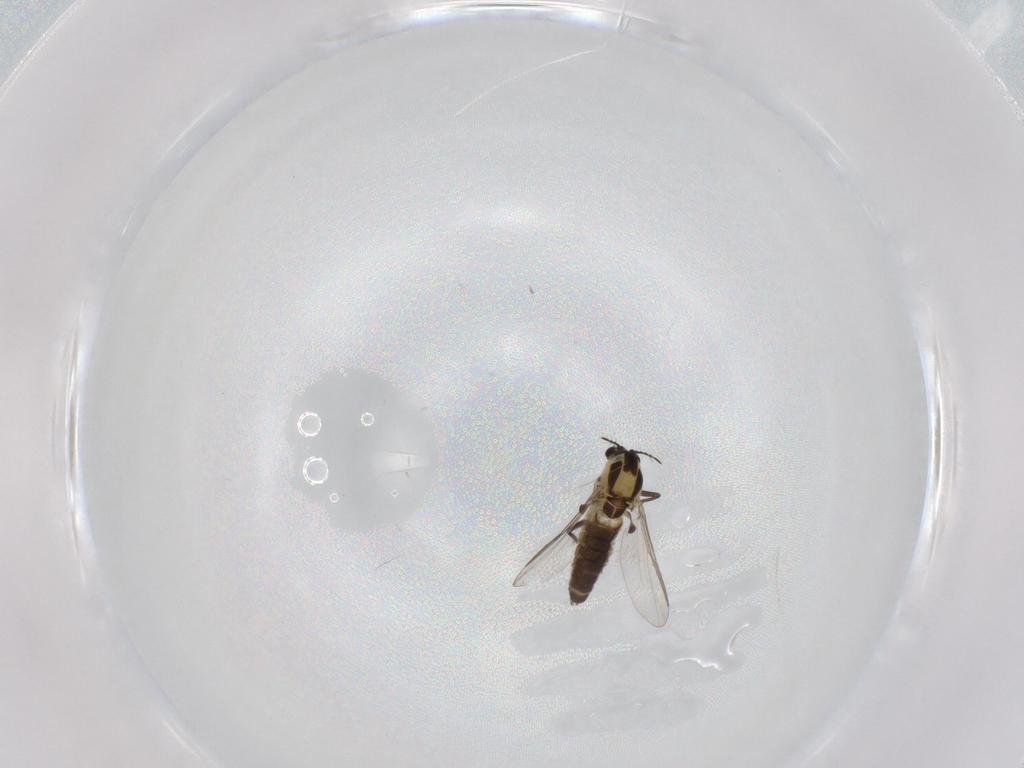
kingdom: Animalia
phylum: Arthropoda
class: Insecta
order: Diptera
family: Chironomidae
